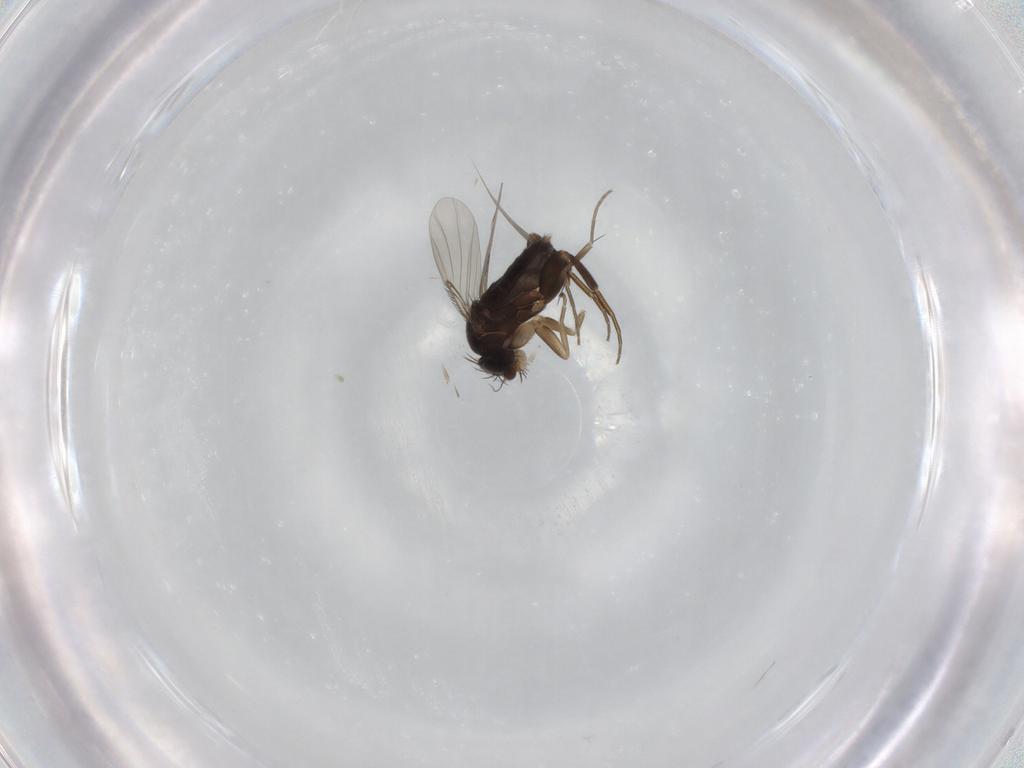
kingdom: Animalia
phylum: Arthropoda
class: Insecta
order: Diptera
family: Phoridae
